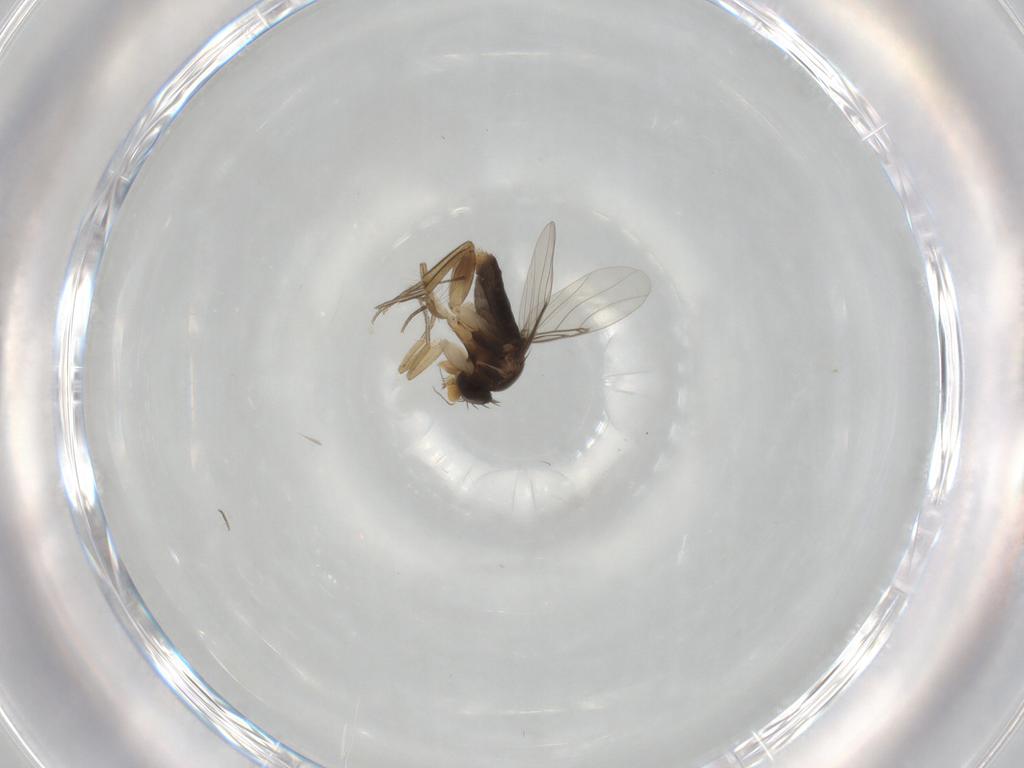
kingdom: Animalia
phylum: Arthropoda
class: Insecta
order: Diptera
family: Phoridae
